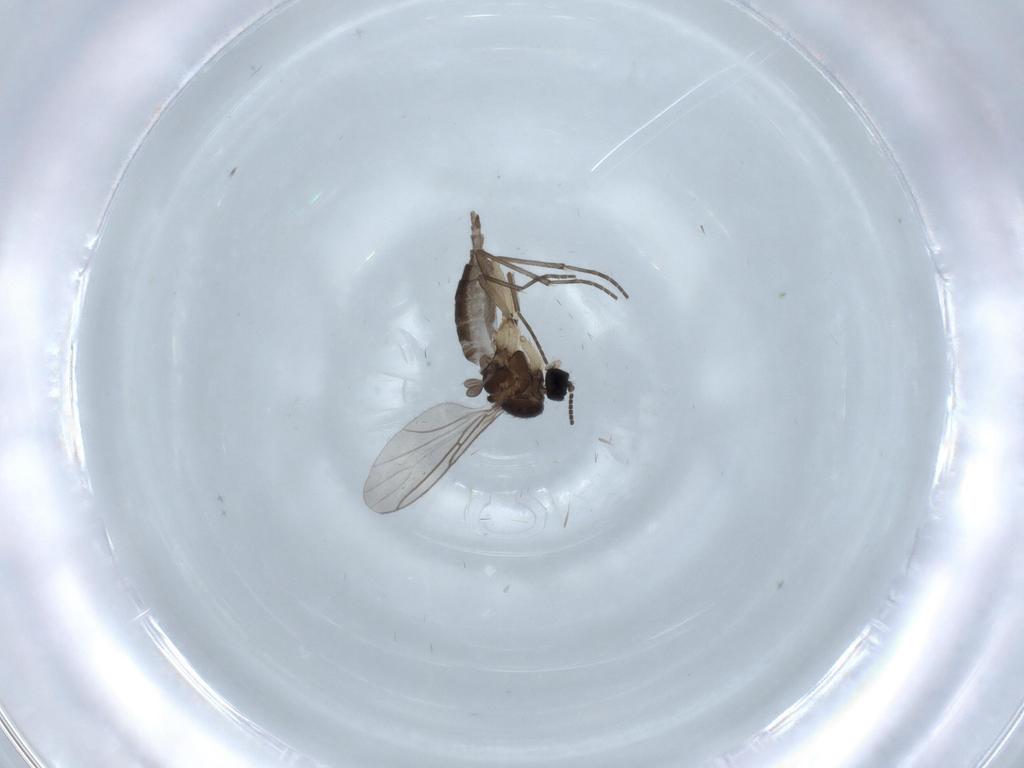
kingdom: Animalia
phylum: Arthropoda
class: Insecta
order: Diptera
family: Sciaridae
